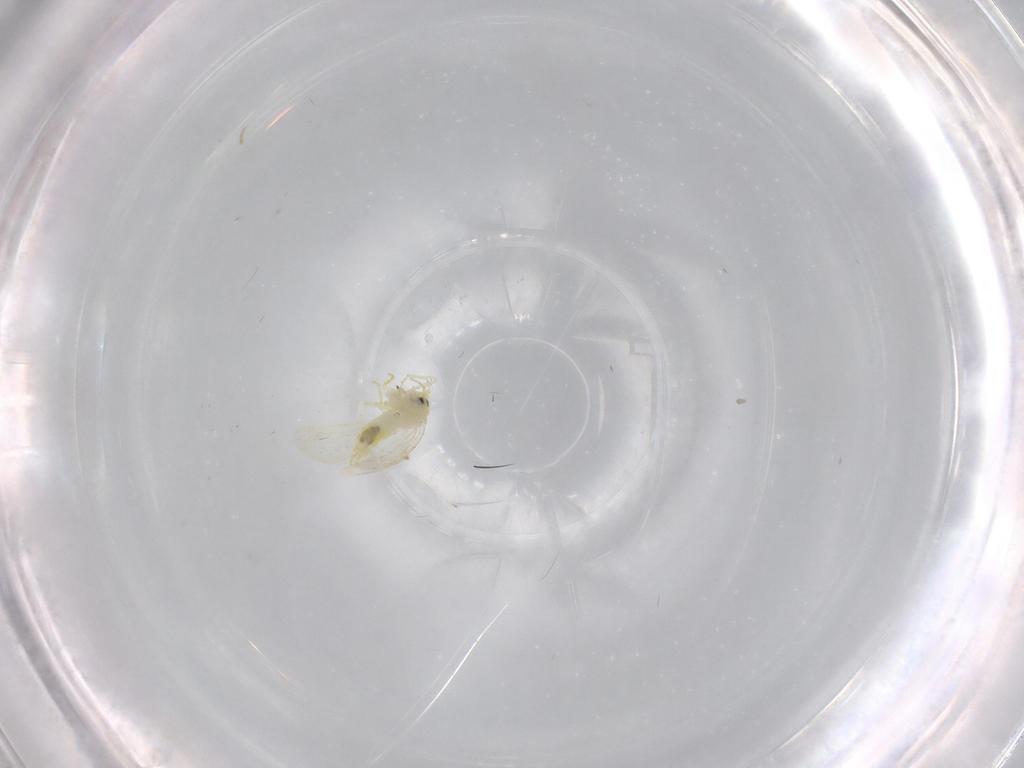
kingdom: Animalia
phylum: Arthropoda
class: Insecta
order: Hemiptera
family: Aleyrodidae
